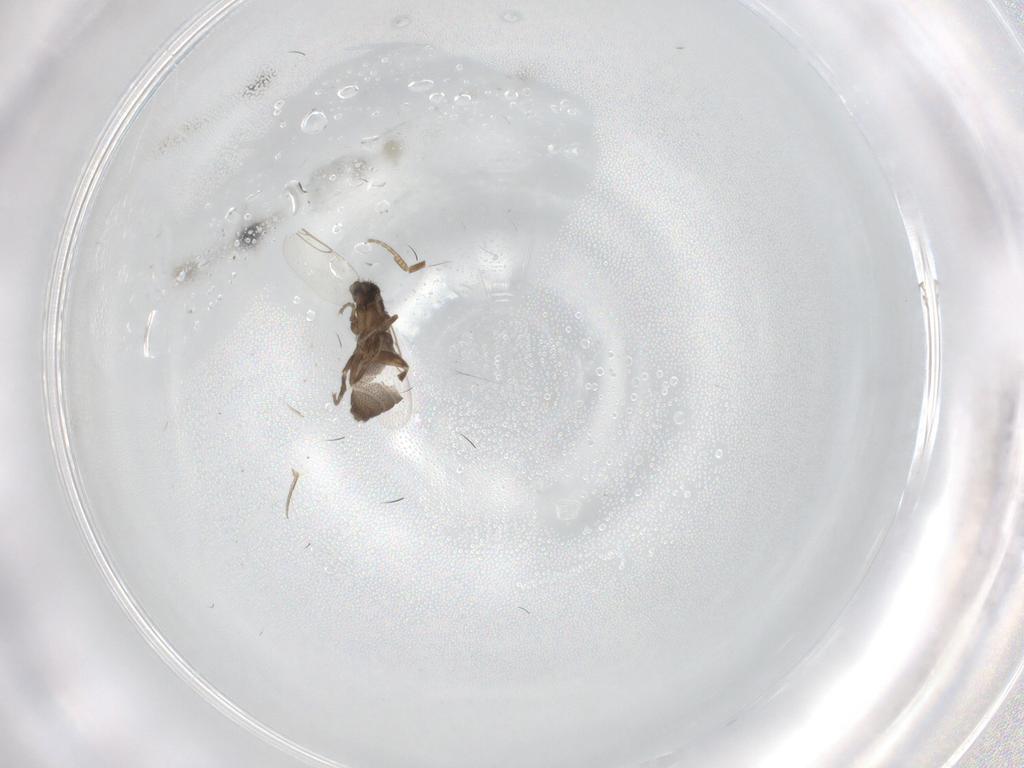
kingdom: Animalia
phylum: Arthropoda
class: Insecta
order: Diptera
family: Phoridae
